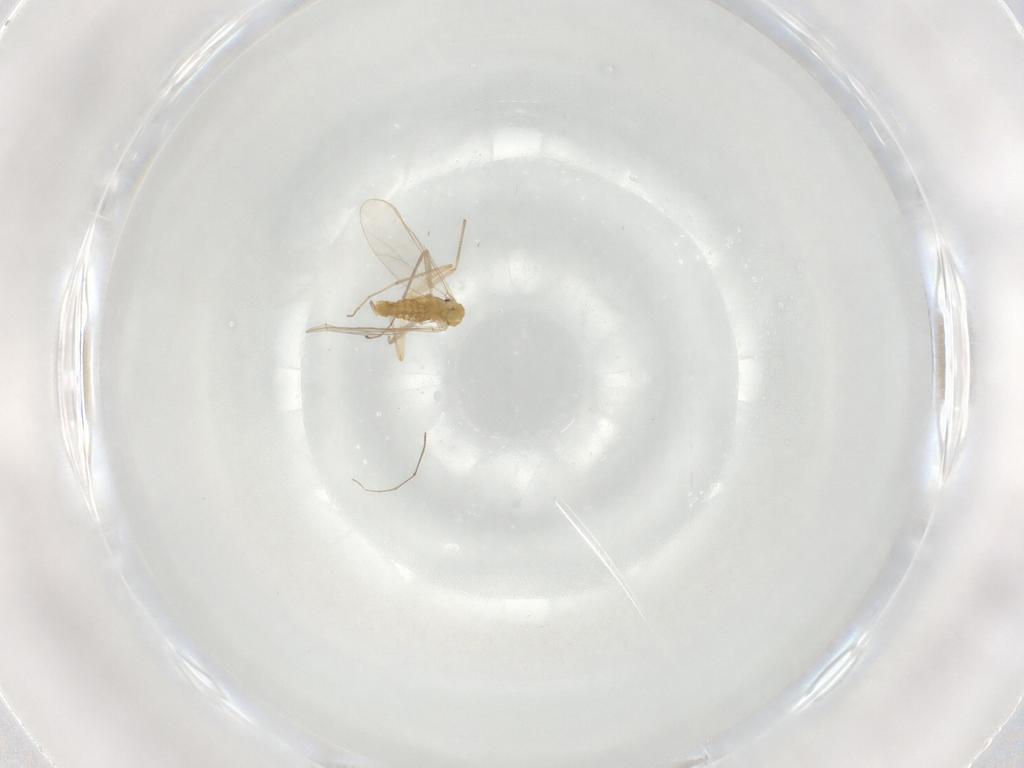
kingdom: Animalia
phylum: Arthropoda
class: Insecta
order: Diptera
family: Chironomidae
